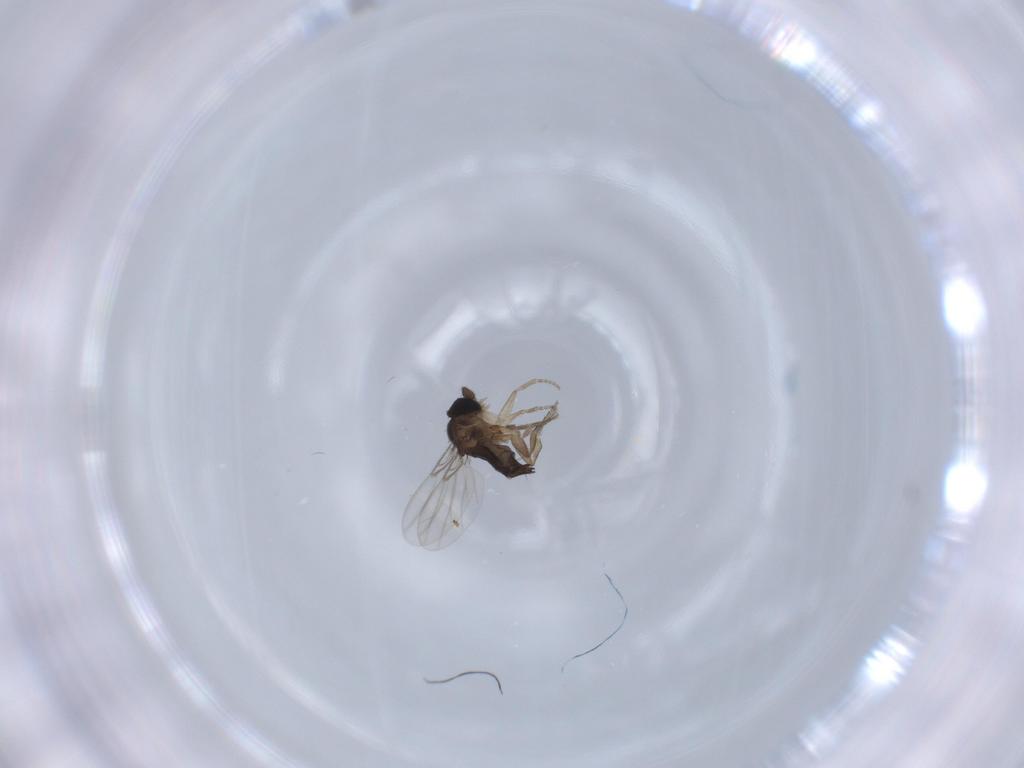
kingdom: Animalia
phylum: Arthropoda
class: Insecta
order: Diptera
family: Phoridae
